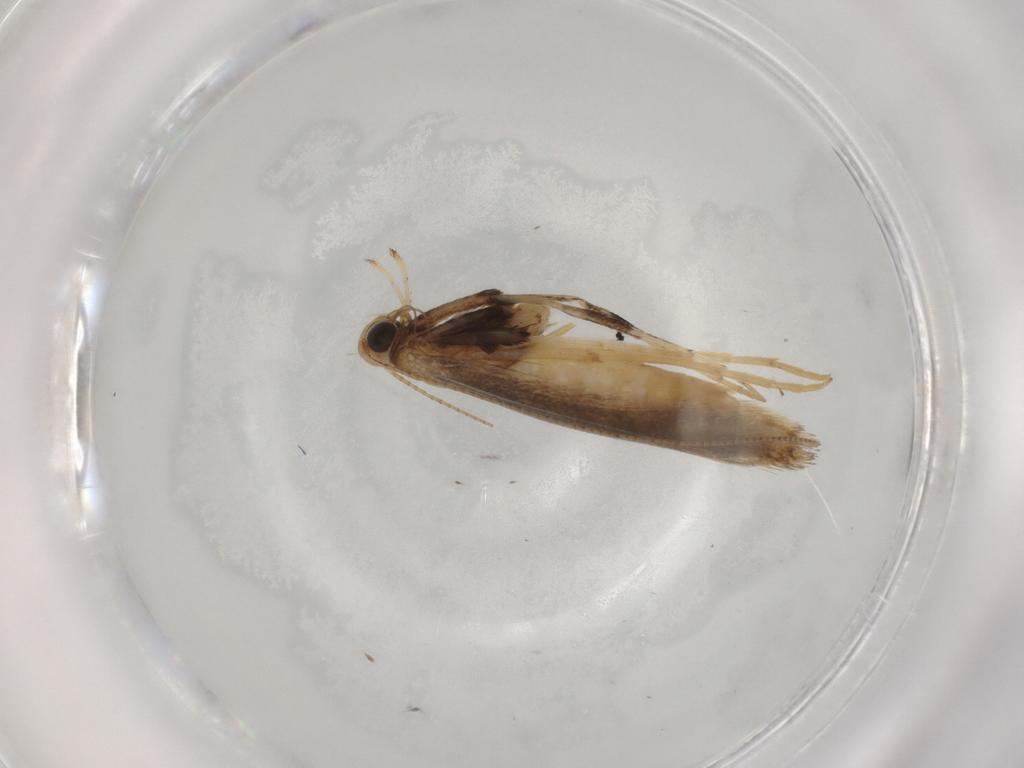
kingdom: Animalia
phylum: Arthropoda
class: Insecta
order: Lepidoptera
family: Gracillariidae
